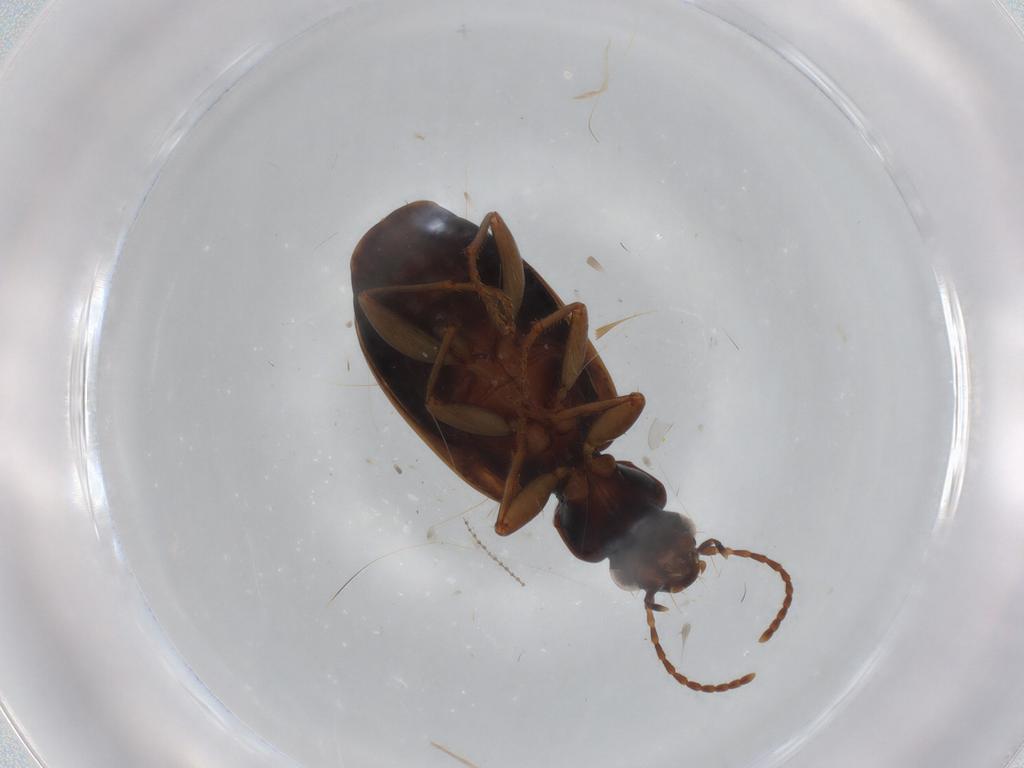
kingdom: Animalia
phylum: Arthropoda
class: Insecta
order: Coleoptera
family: Carabidae
